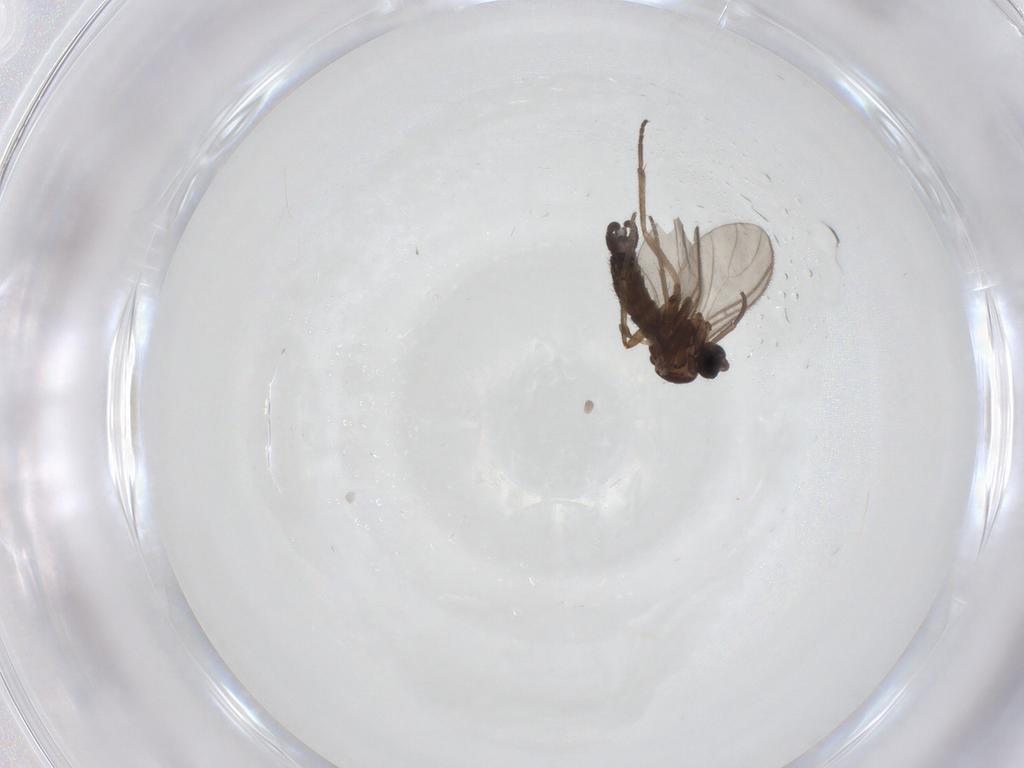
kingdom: Animalia
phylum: Arthropoda
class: Insecta
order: Diptera
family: Sciaridae
